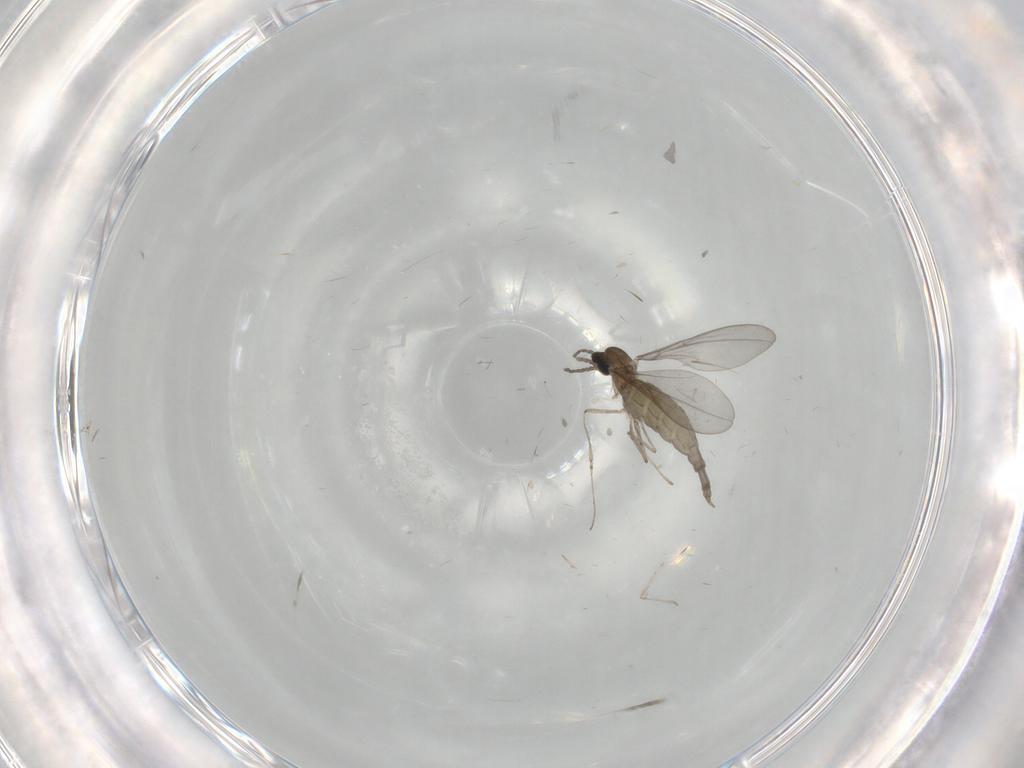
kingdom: Animalia
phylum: Arthropoda
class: Insecta
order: Diptera
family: Cecidomyiidae
